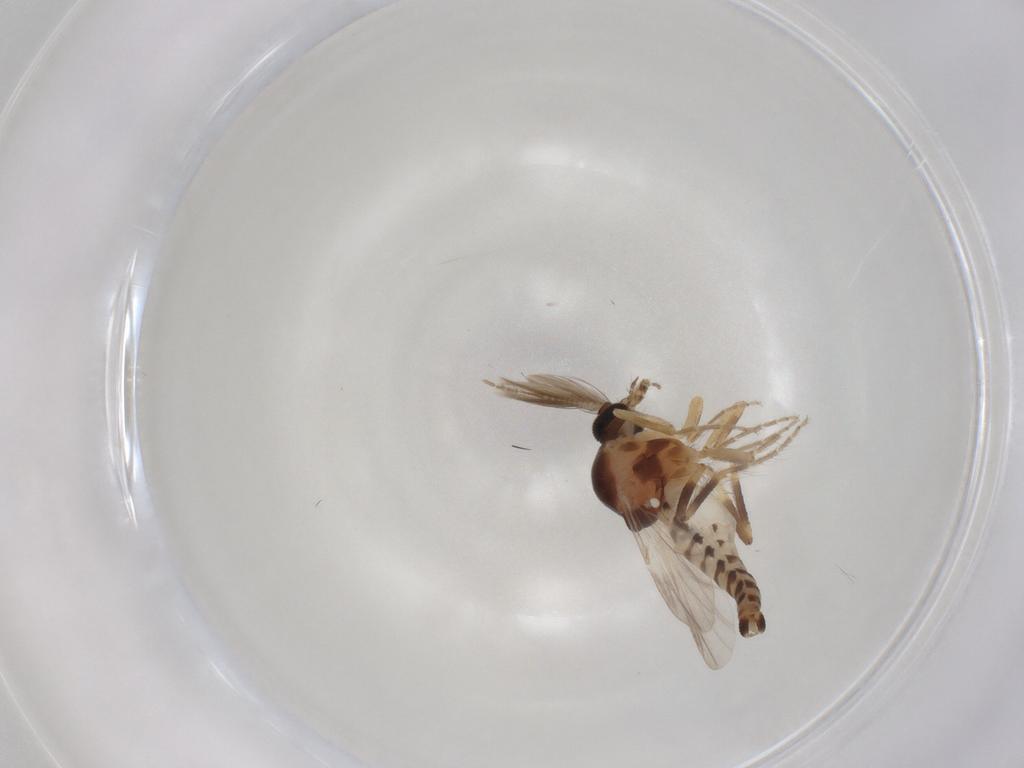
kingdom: Animalia
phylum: Arthropoda
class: Insecta
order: Diptera
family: Ceratopogonidae
